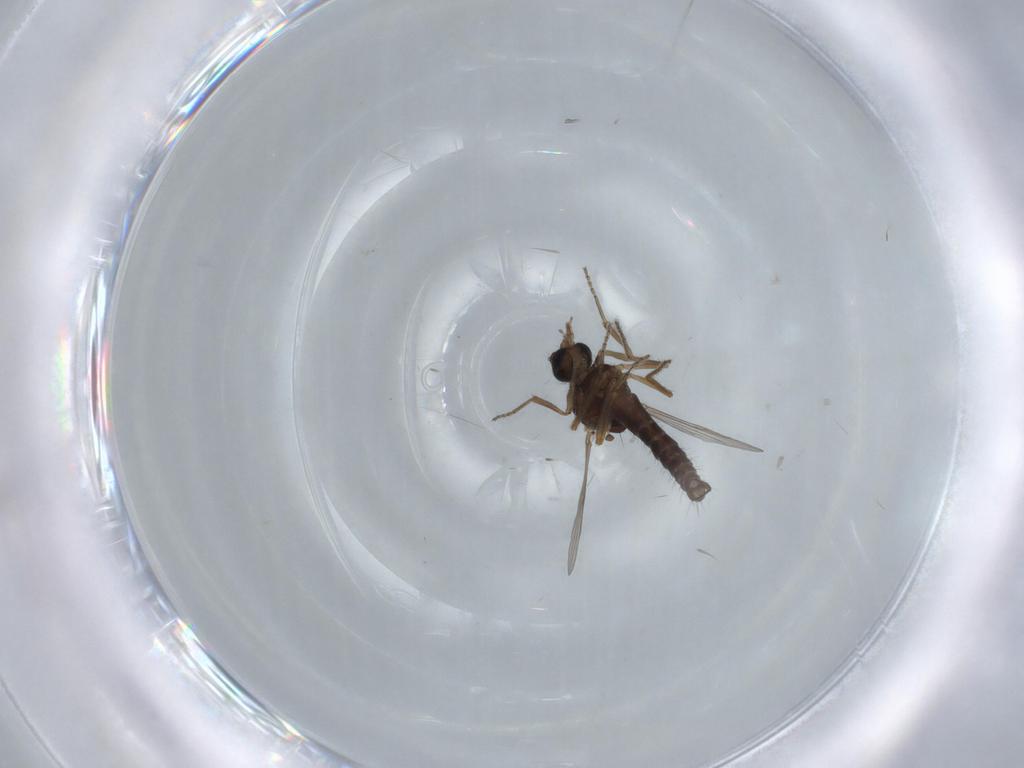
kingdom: Animalia
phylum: Arthropoda
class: Insecta
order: Diptera
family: Ceratopogonidae
